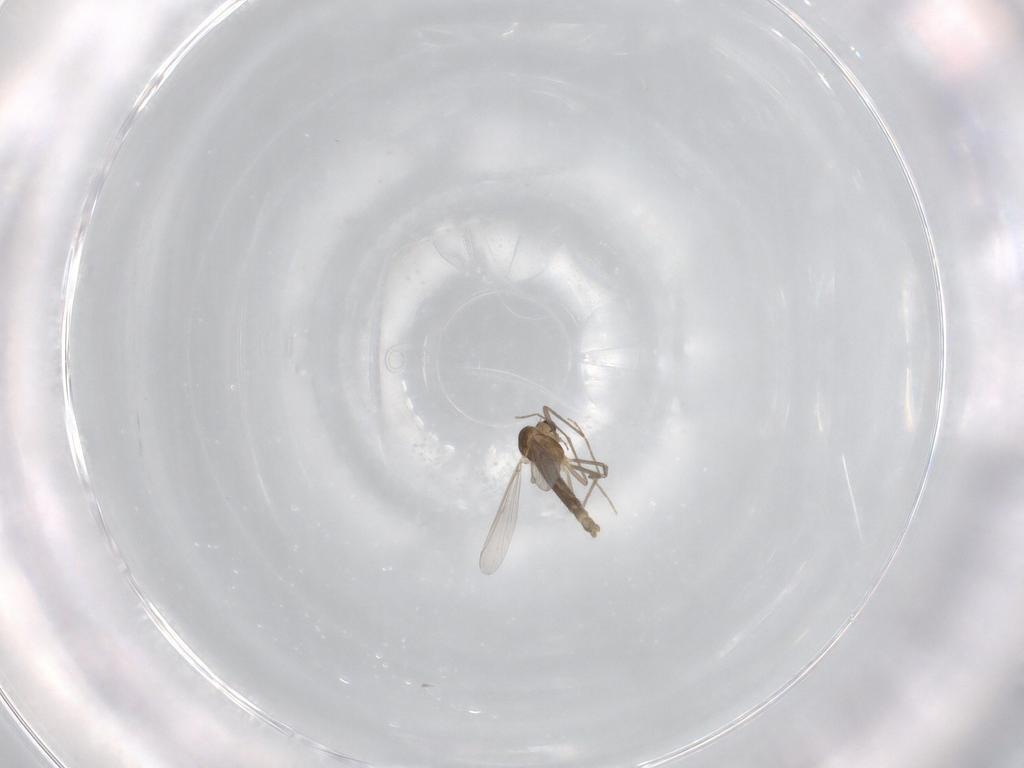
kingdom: Animalia
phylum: Arthropoda
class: Insecta
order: Diptera
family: Chironomidae
